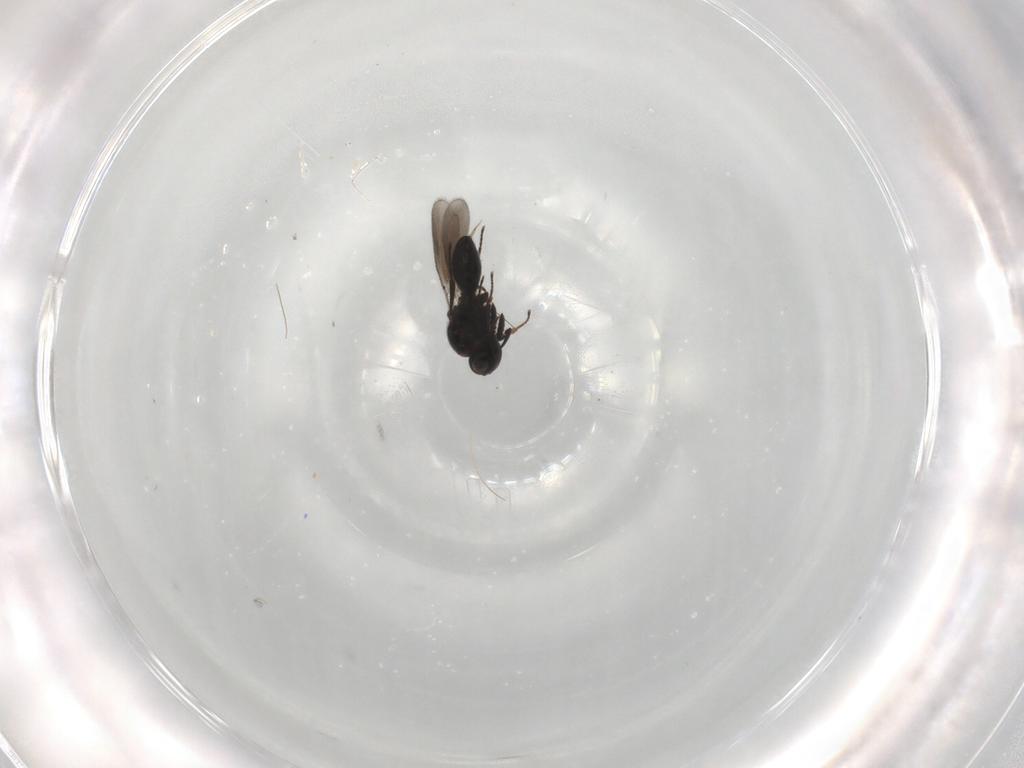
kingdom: Animalia
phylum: Arthropoda
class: Insecta
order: Hymenoptera
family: Platygastridae
